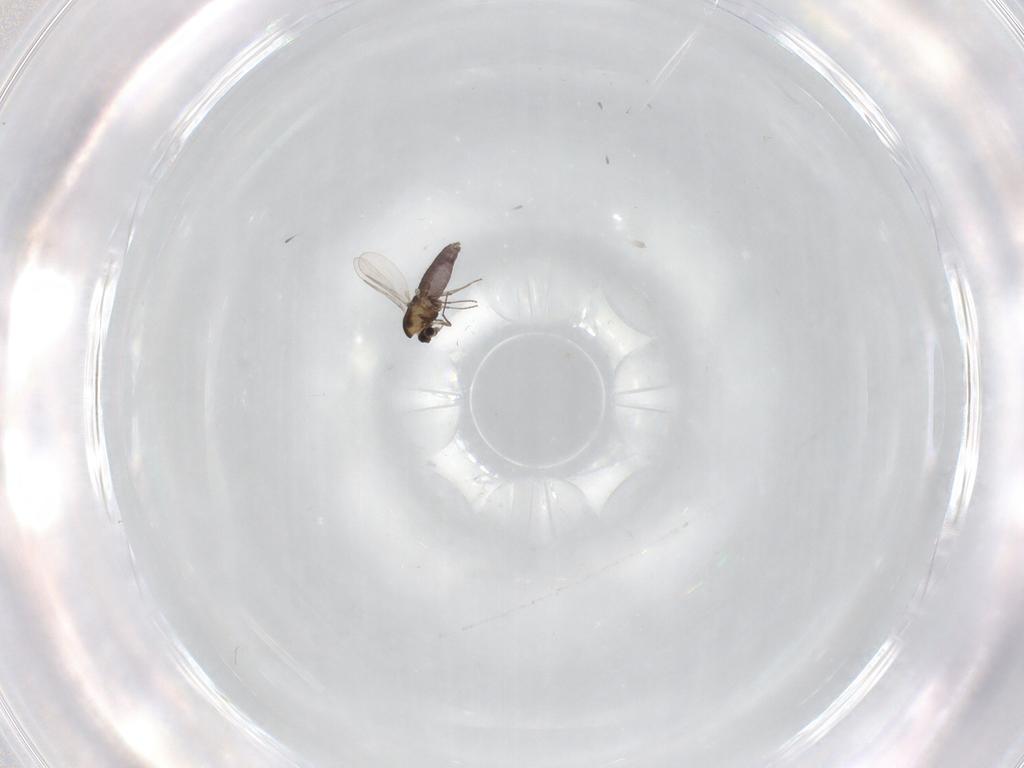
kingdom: Animalia
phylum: Arthropoda
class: Insecta
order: Diptera
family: Chironomidae
